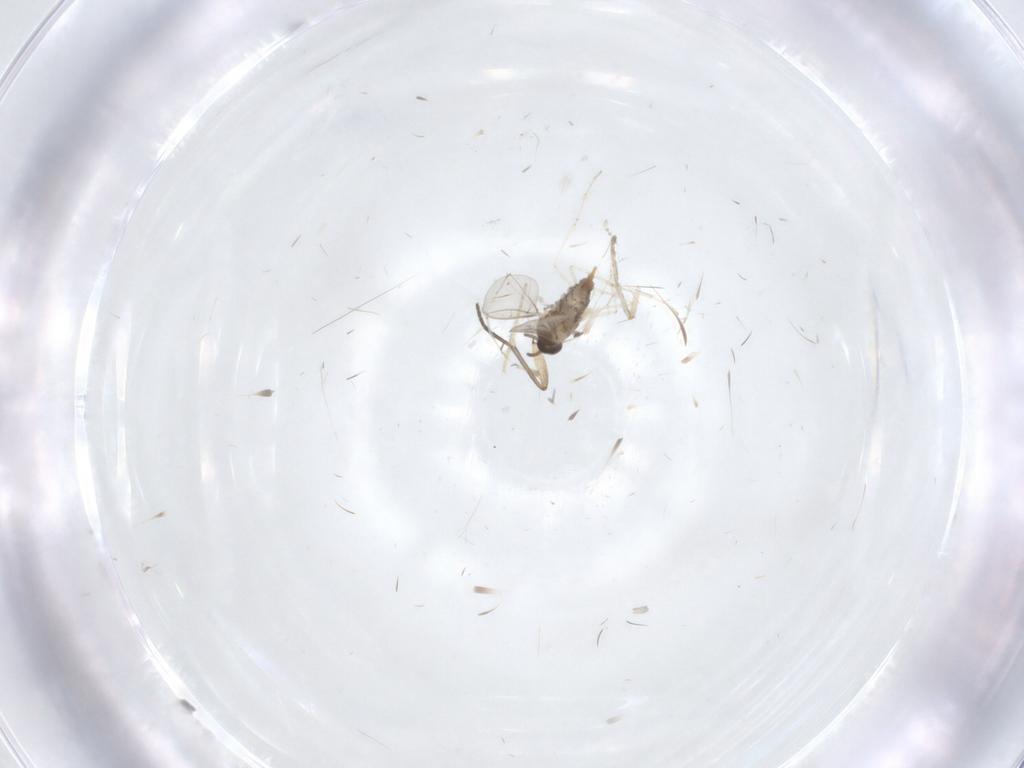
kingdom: Animalia
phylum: Arthropoda
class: Insecta
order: Diptera
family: Cecidomyiidae
